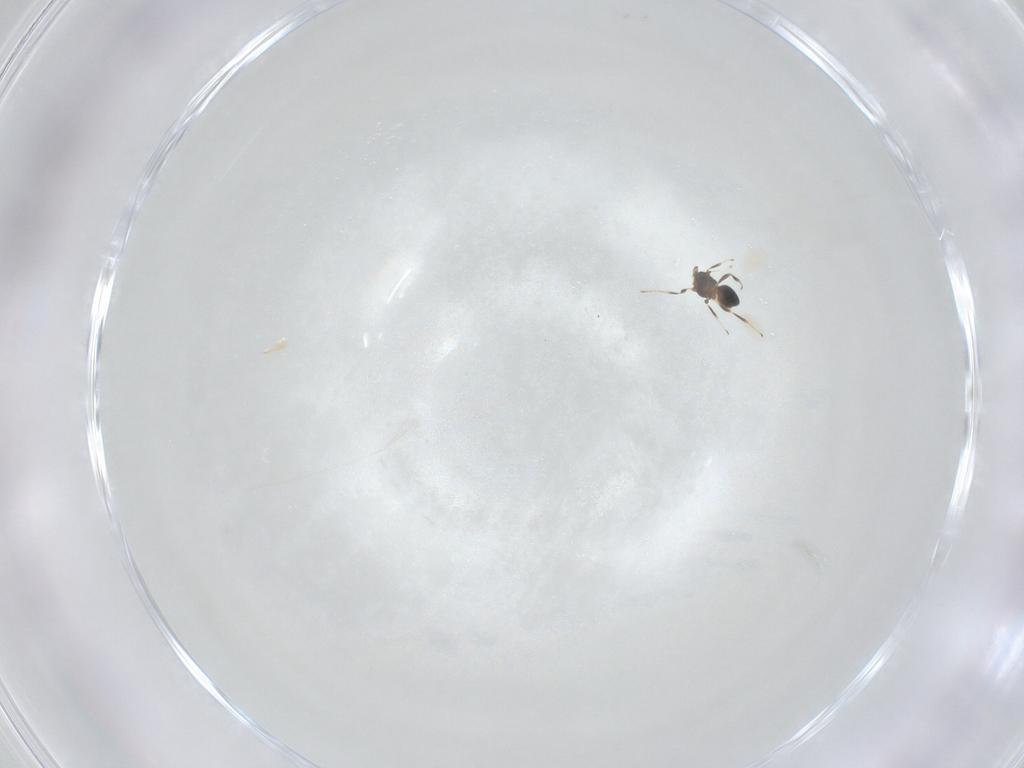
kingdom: Animalia
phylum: Arthropoda
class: Insecta
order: Hymenoptera
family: Platygastridae
